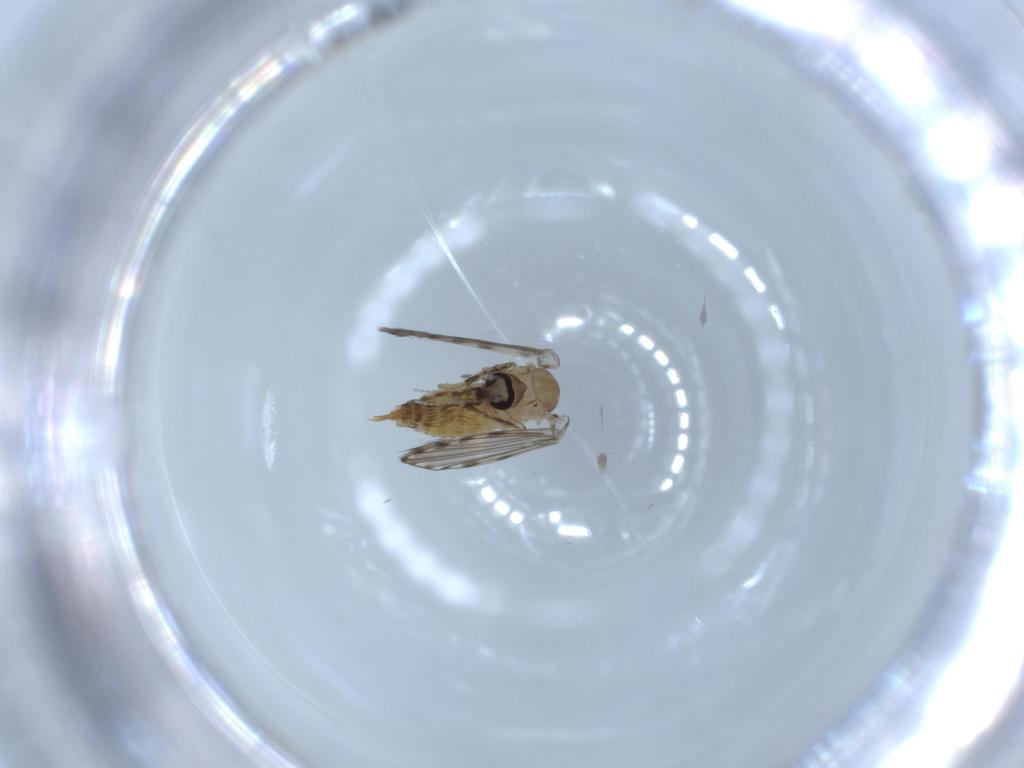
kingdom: Animalia
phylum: Arthropoda
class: Insecta
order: Diptera
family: Psychodidae
